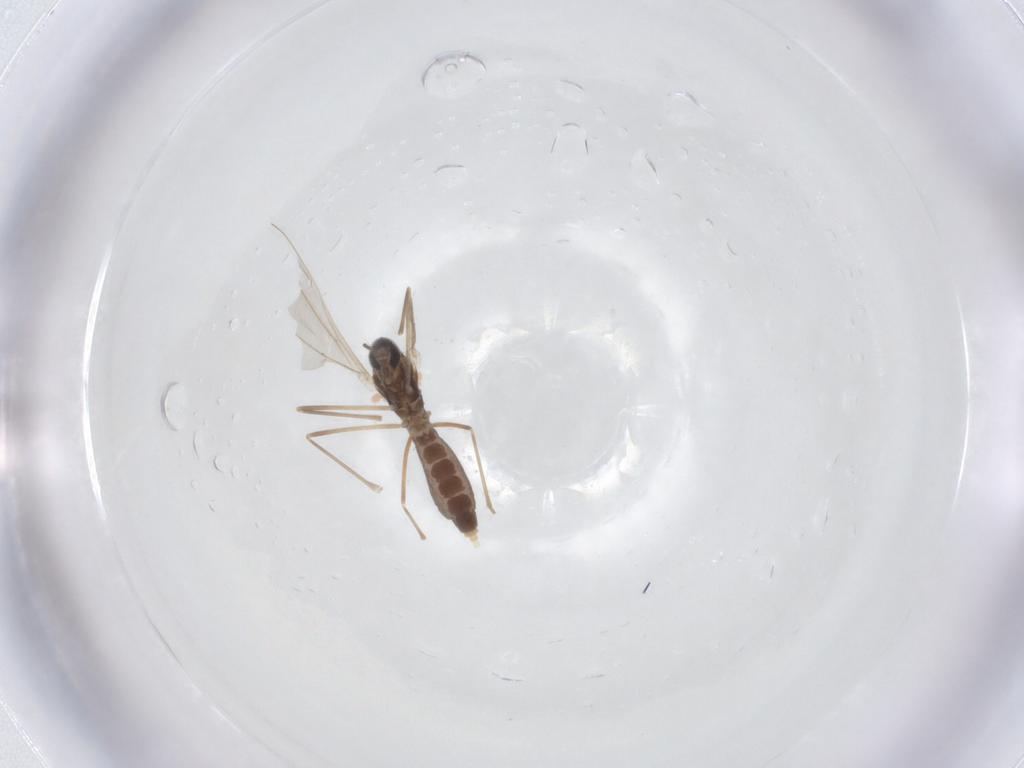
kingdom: Animalia
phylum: Arthropoda
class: Insecta
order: Diptera
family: Cecidomyiidae
